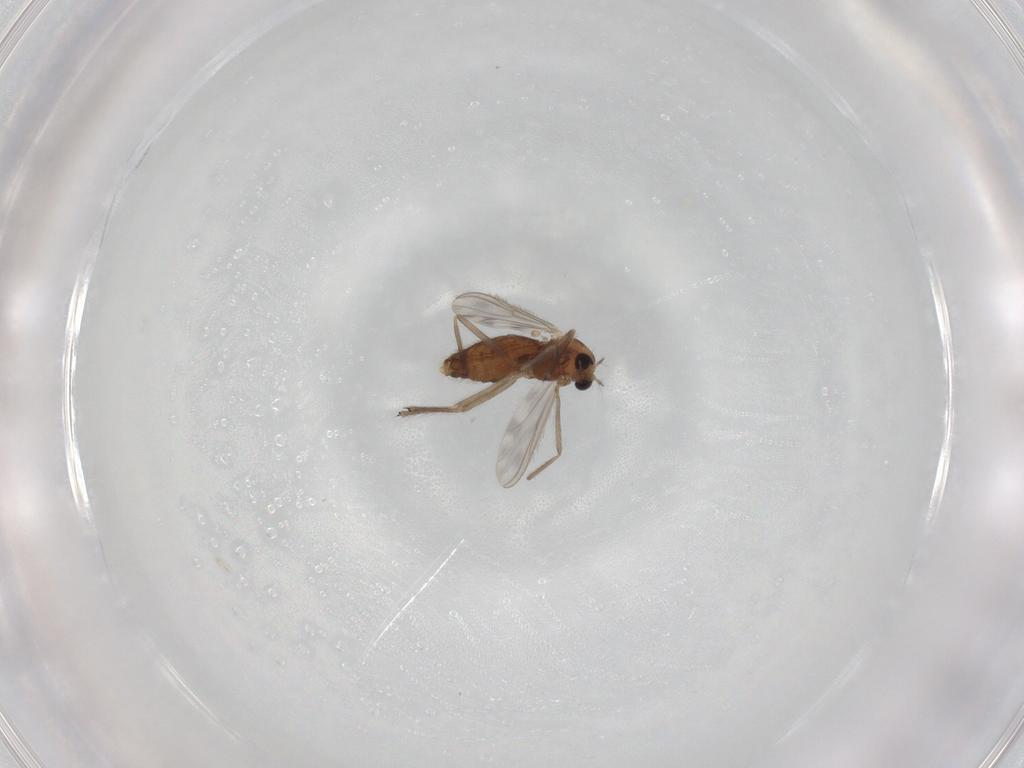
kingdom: Animalia
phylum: Arthropoda
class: Insecta
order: Diptera
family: Chironomidae
